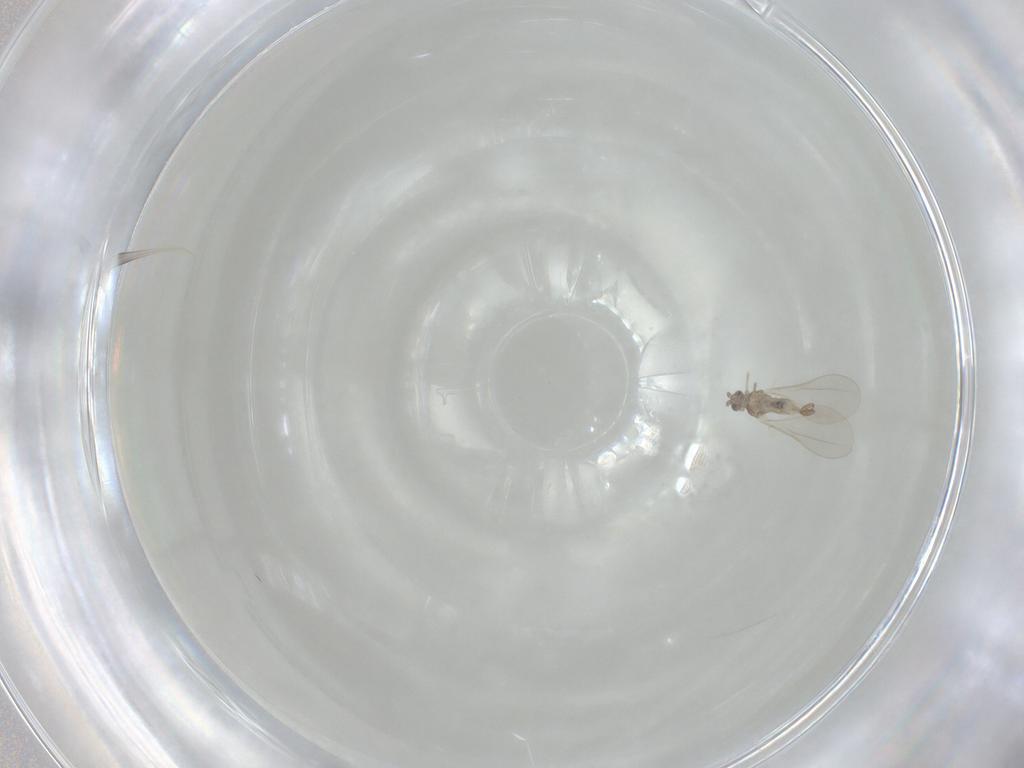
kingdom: Animalia
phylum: Arthropoda
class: Insecta
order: Diptera
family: Cecidomyiidae
